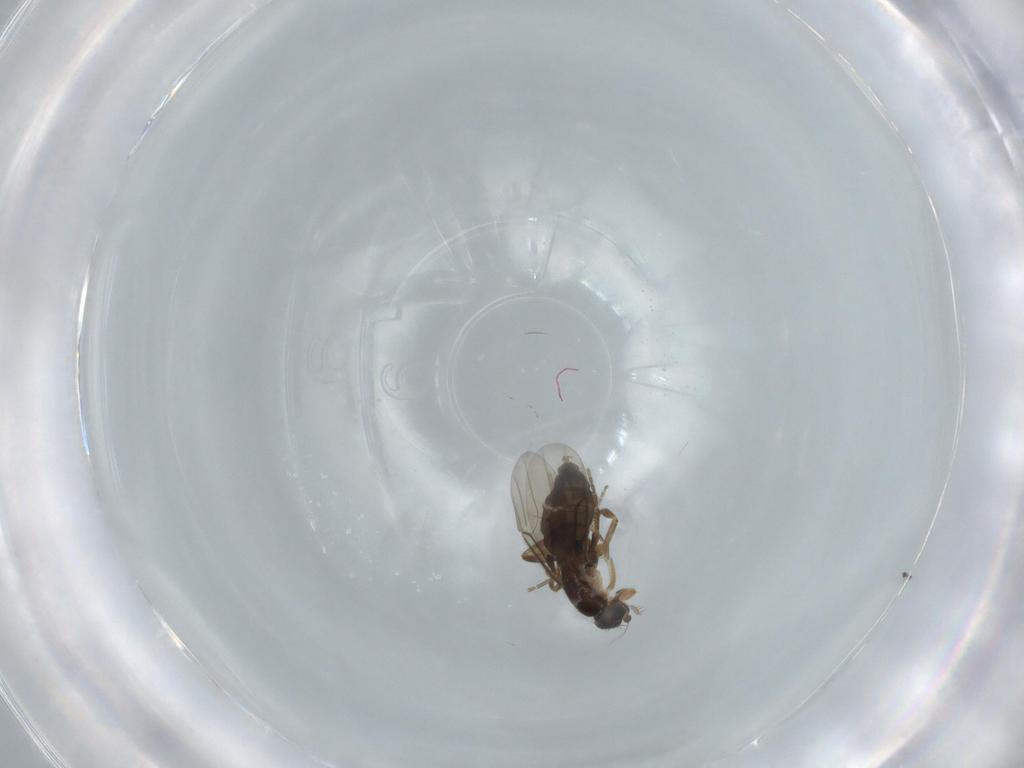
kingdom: Animalia
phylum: Arthropoda
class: Insecta
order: Diptera
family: Phoridae
